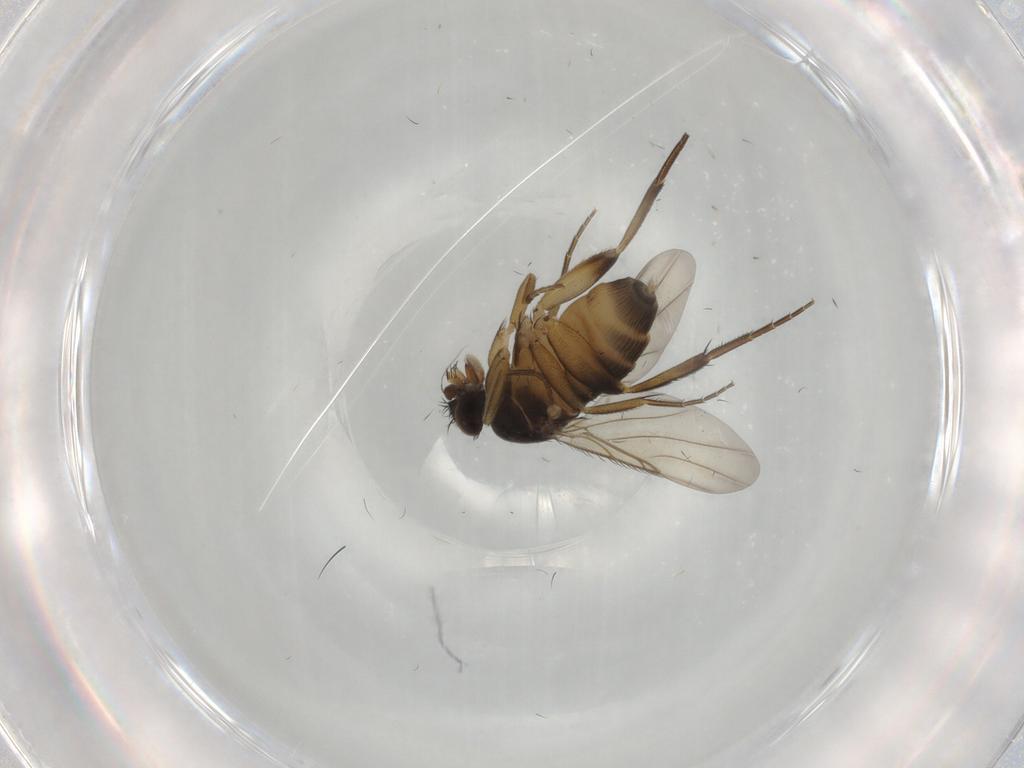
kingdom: Animalia
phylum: Arthropoda
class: Insecta
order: Diptera
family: Phoridae
